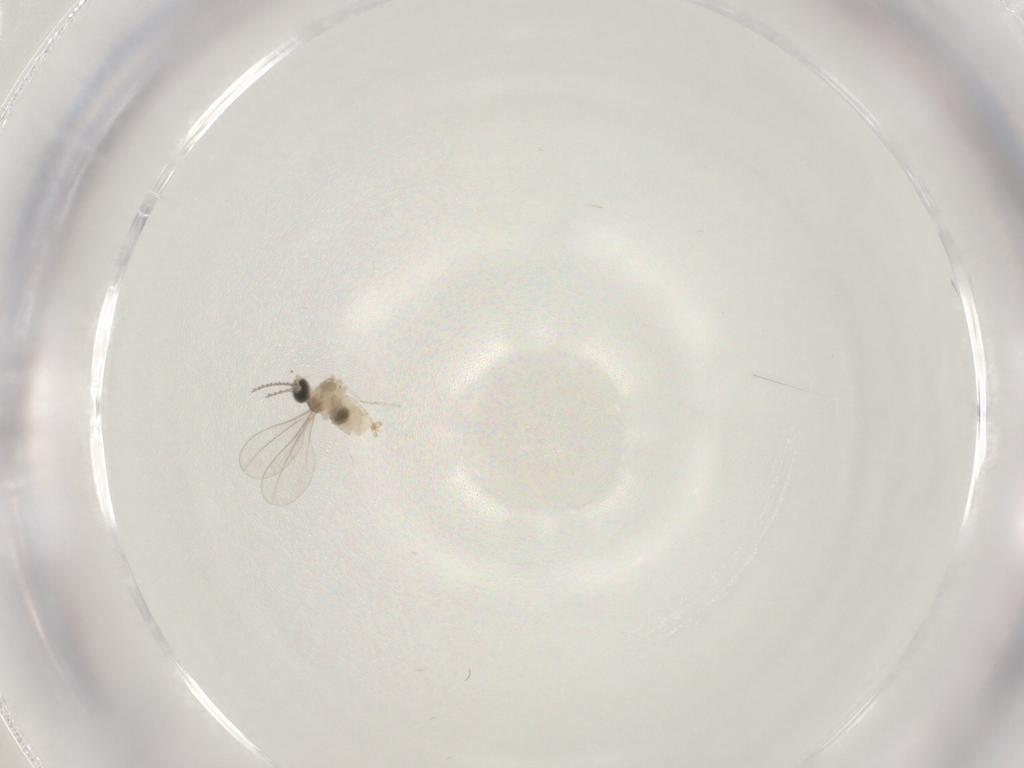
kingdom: Animalia
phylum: Arthropoda
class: Insecta
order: Diptera
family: Cecidomyiidae
